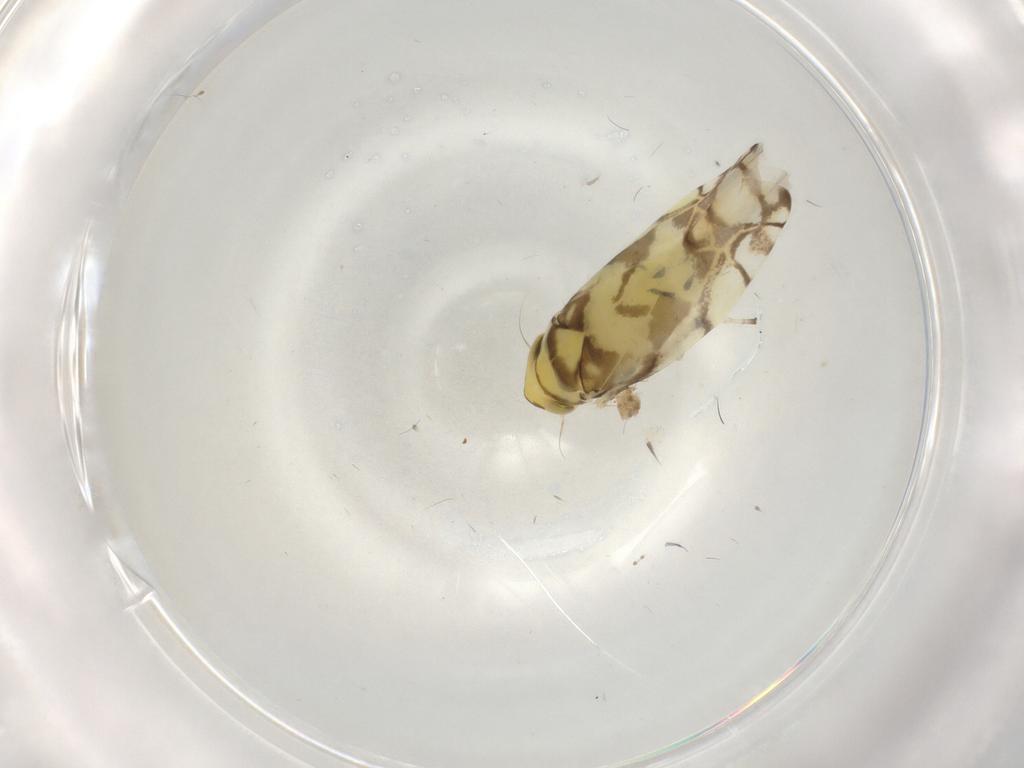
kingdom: Animalia
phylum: Arthropoda
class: Insecta
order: Hemiptera
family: Cicadellidae
